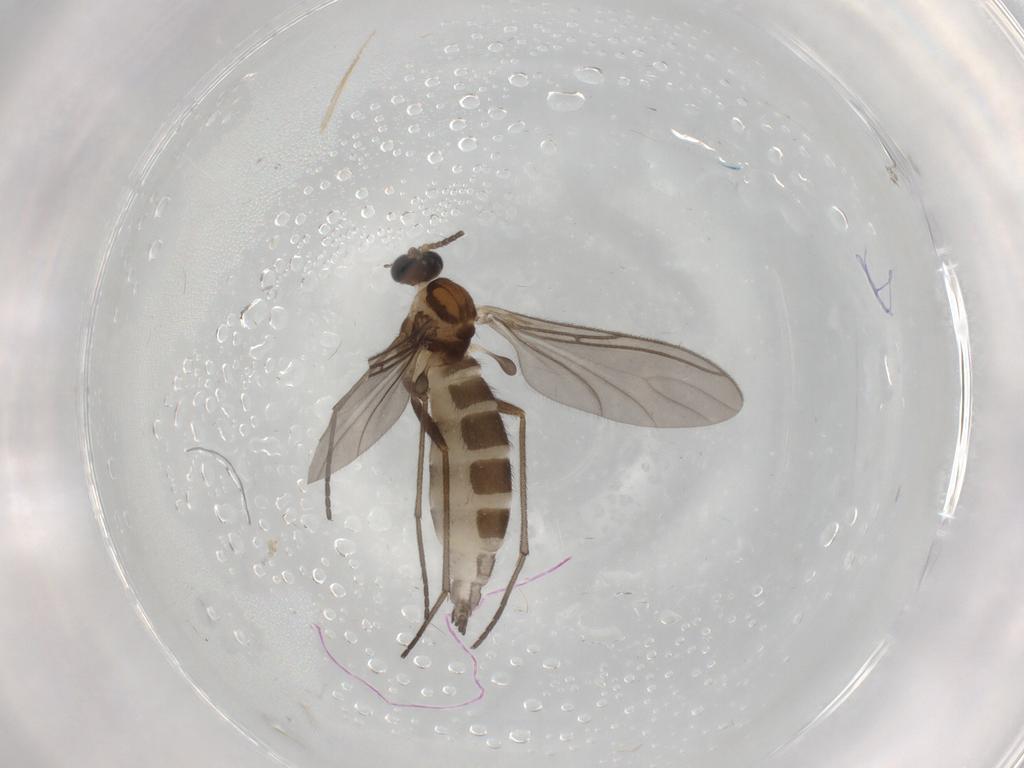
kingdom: Animalia
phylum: Arthropoda
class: Insecta
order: Diptera
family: Sciaridae
